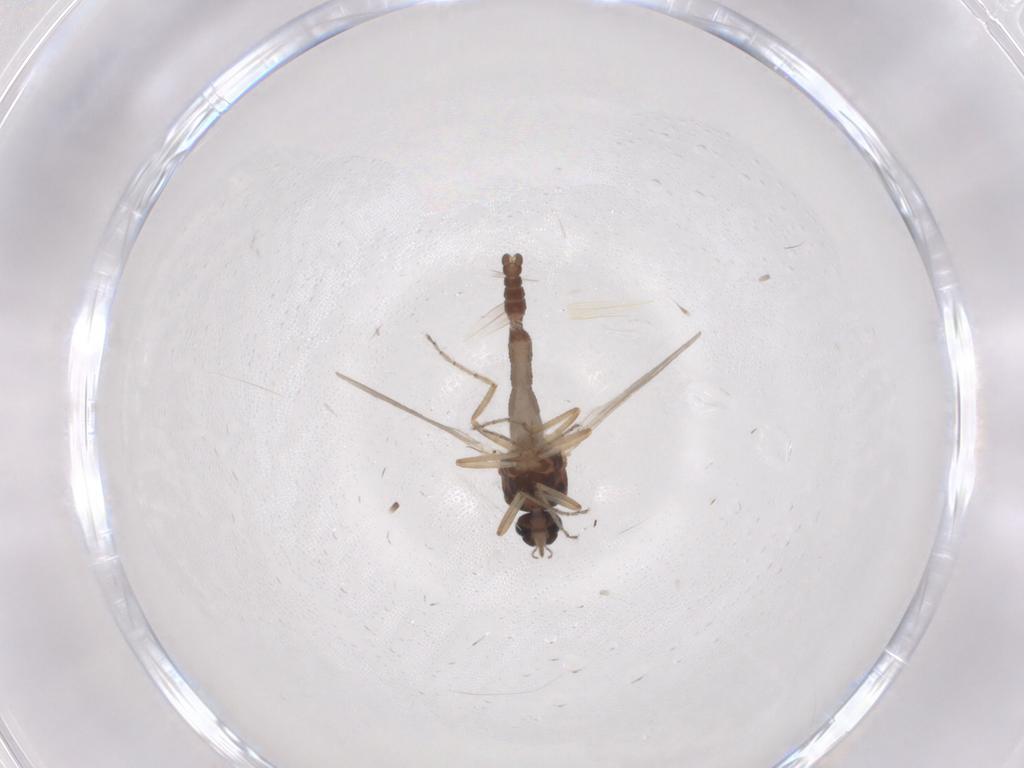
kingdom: Animalia
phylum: Arthropoda
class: Insecta
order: Diptera
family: Ceratopogonidae
